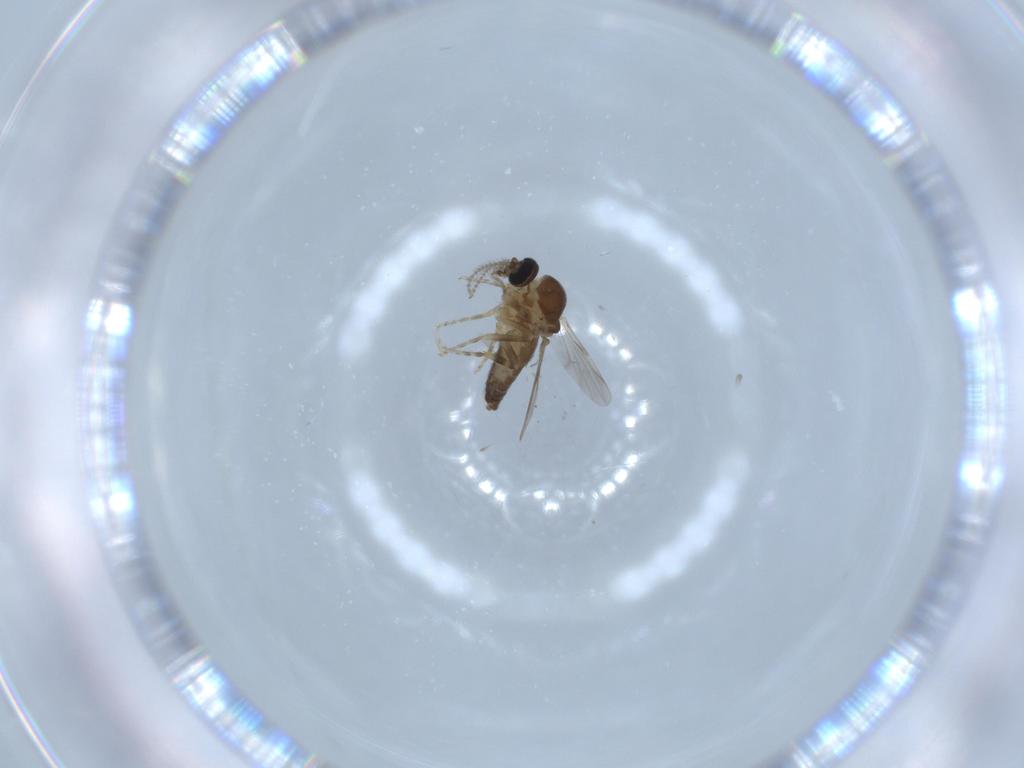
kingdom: Animalia
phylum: Arthropoda
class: Insecta
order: Diptera
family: Ceratopogonidae
